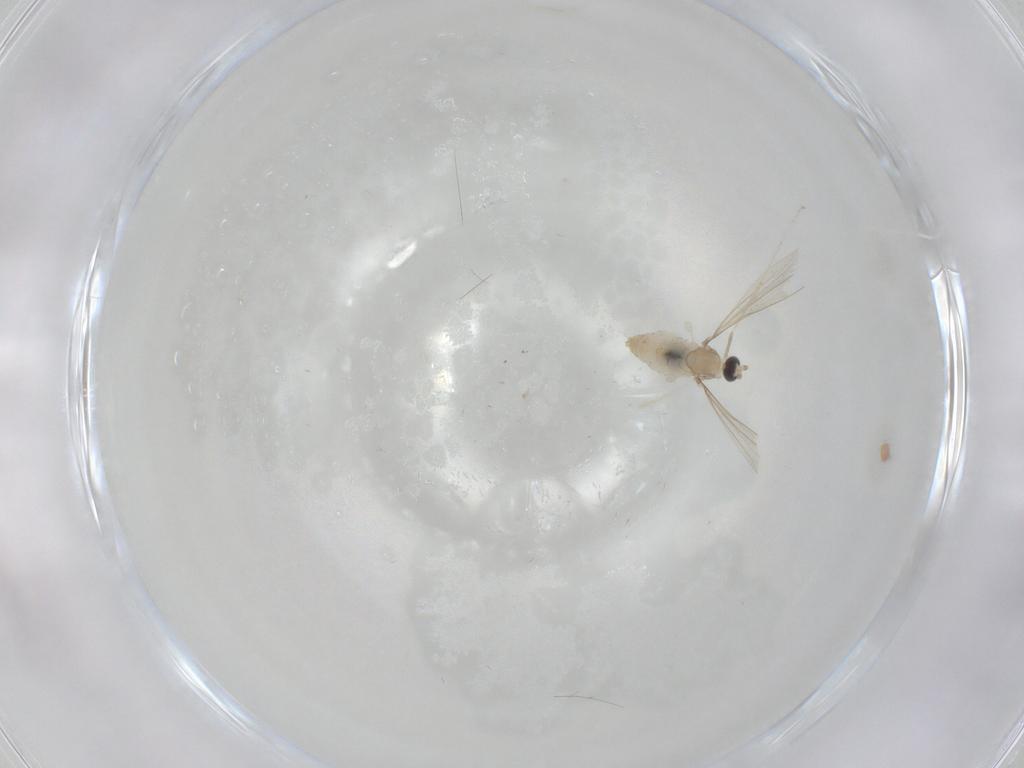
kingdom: Animalia
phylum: Arthropoda
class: Insecta
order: Diptera
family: Cecidomyiidae
